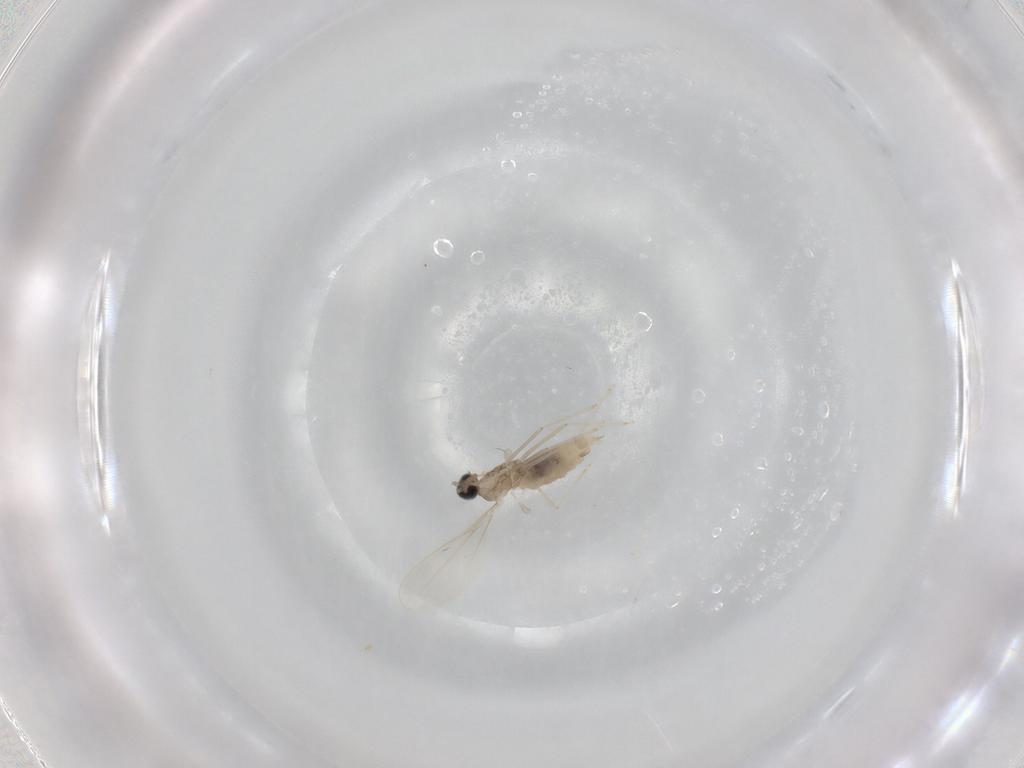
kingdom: Animalia
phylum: Arthropoda
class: Insecta
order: Diptera
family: Cecidomyiidae
